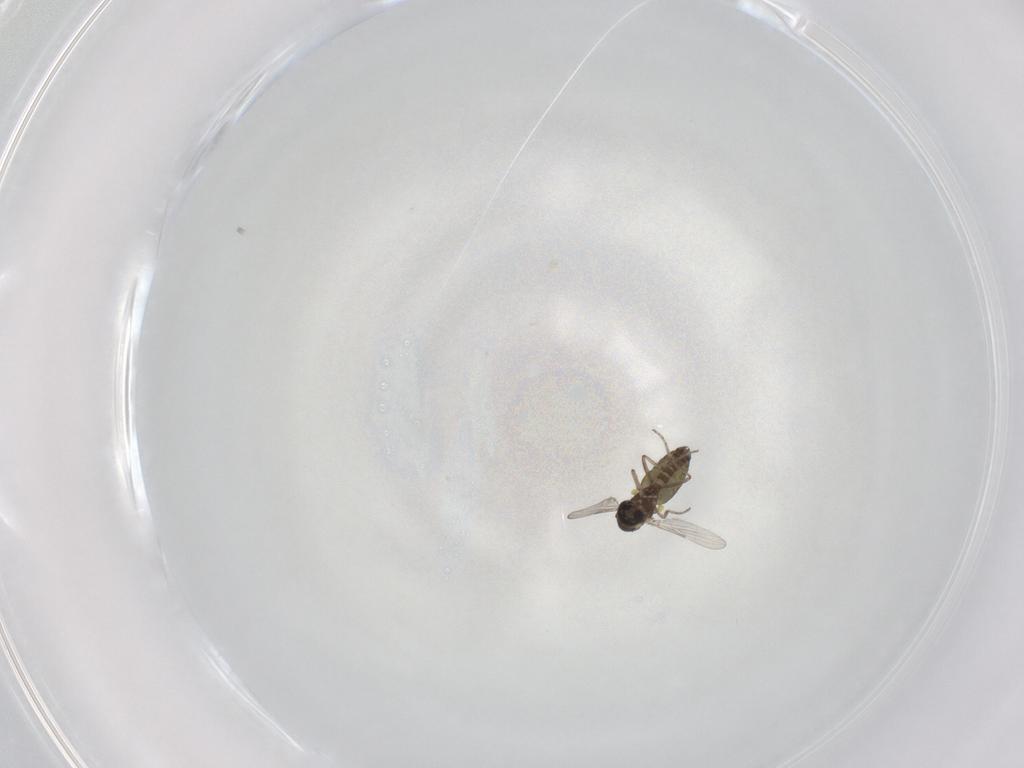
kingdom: Animalia
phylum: Arthropoda
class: Insecta
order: Diptera
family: Ceratopogonidae
